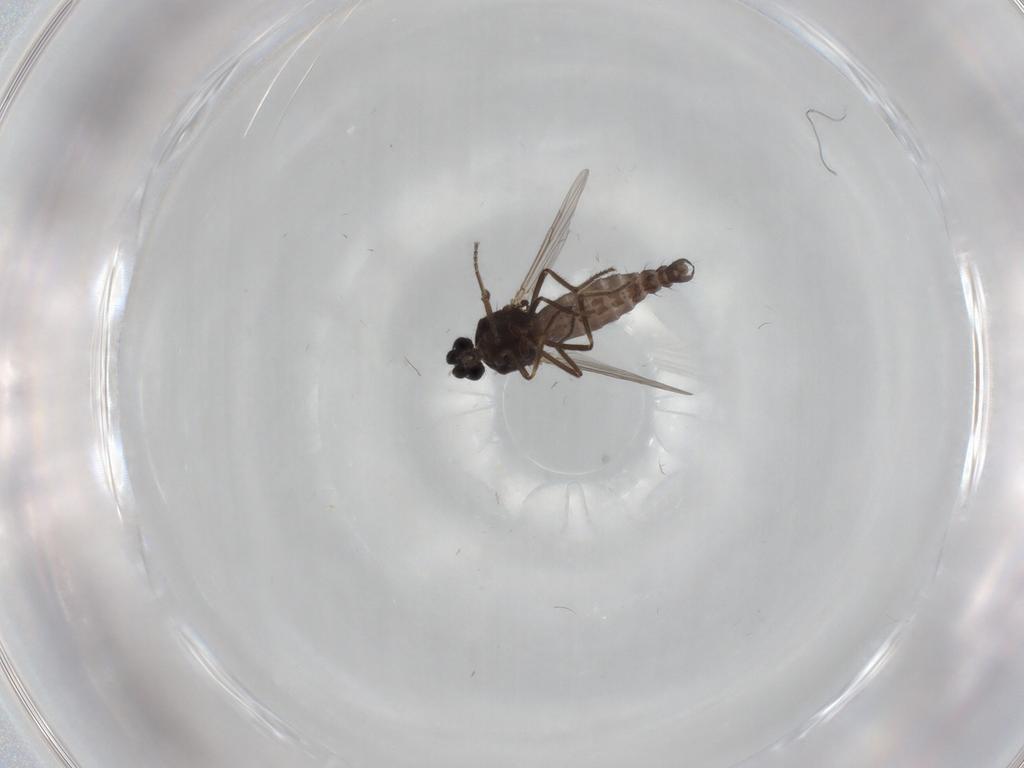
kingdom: Animalia
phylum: Arthropoda
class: Insecta
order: Diptera
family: Ceratopogonidae
